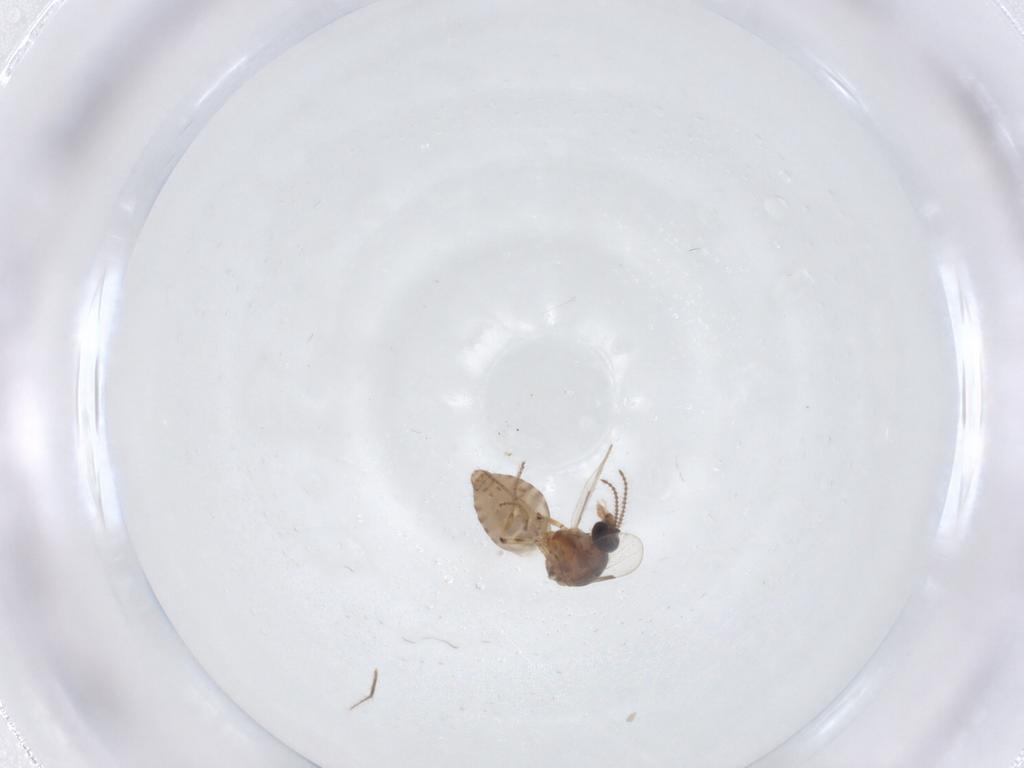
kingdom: Animalia
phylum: Arthropoda
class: Insecta
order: Diptera
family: Ceratopogonidae
